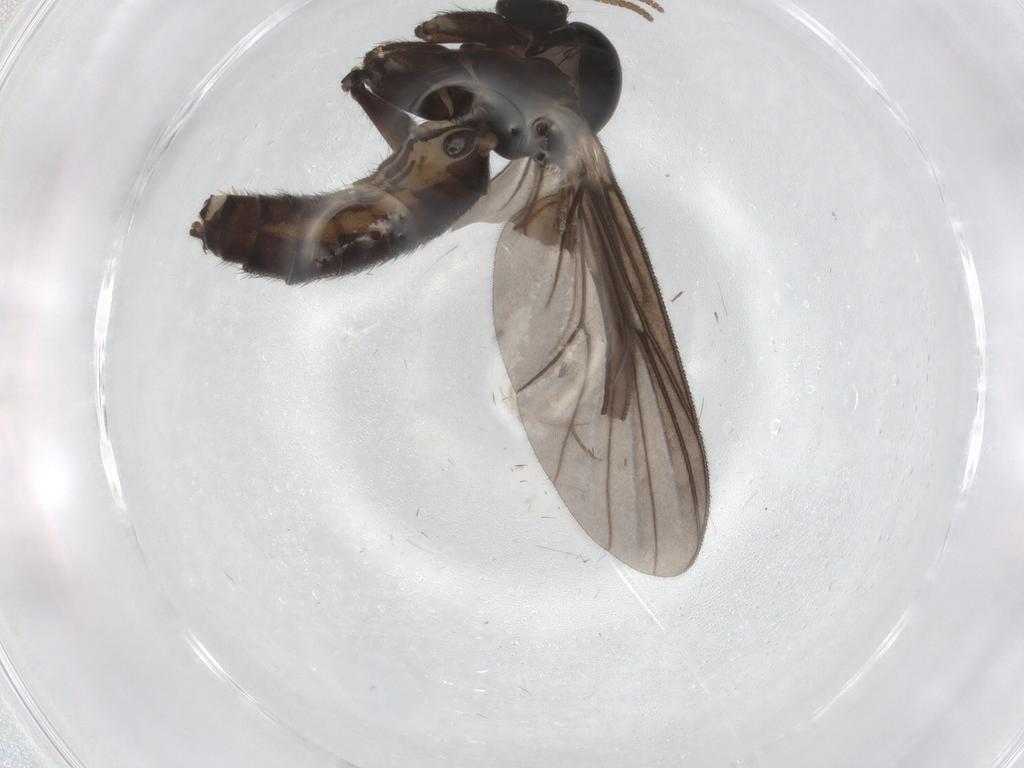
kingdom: Animalia
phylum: Arthropoda
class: Insecta
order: Diptera
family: Mycetophilidae
